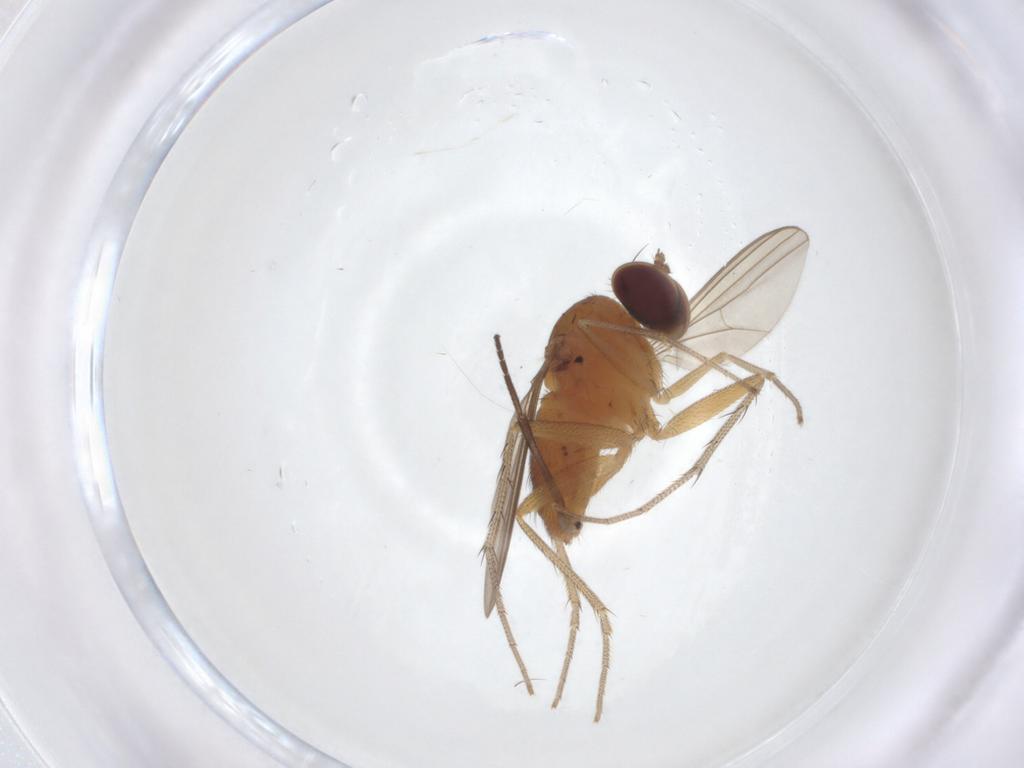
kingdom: Animalia
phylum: Arthropoda
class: Insecta
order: Diptera
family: Dolichopodidae
